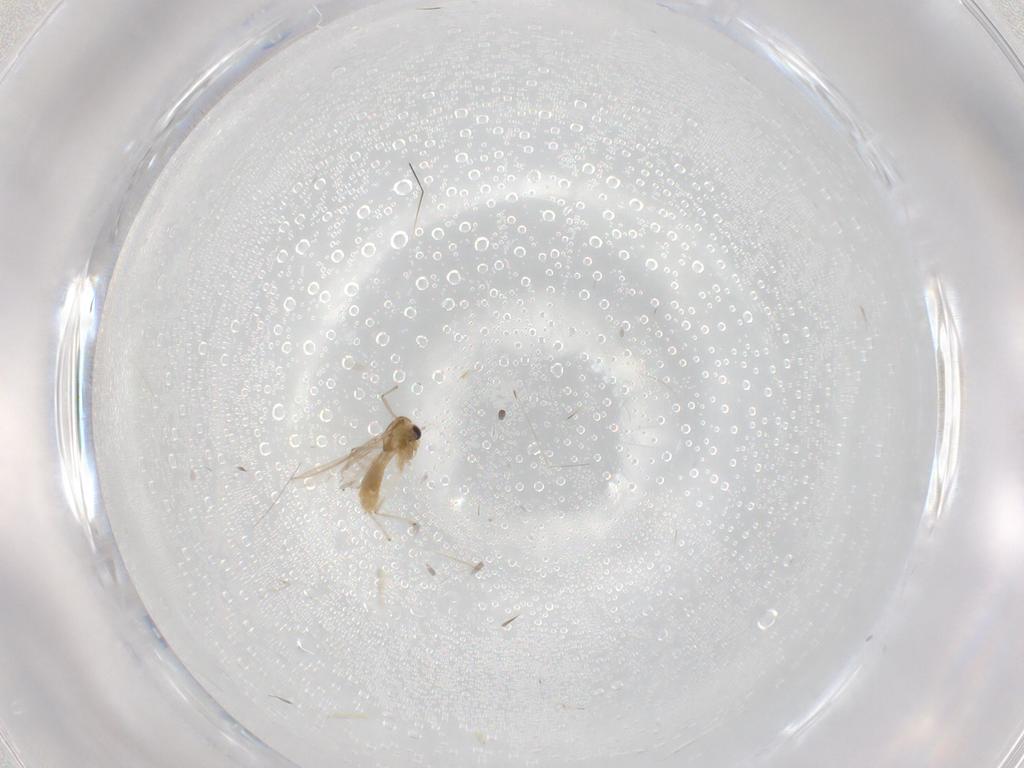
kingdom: Animalia
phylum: Arthropoda
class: Insecta
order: Diptera
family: Chironomidae
